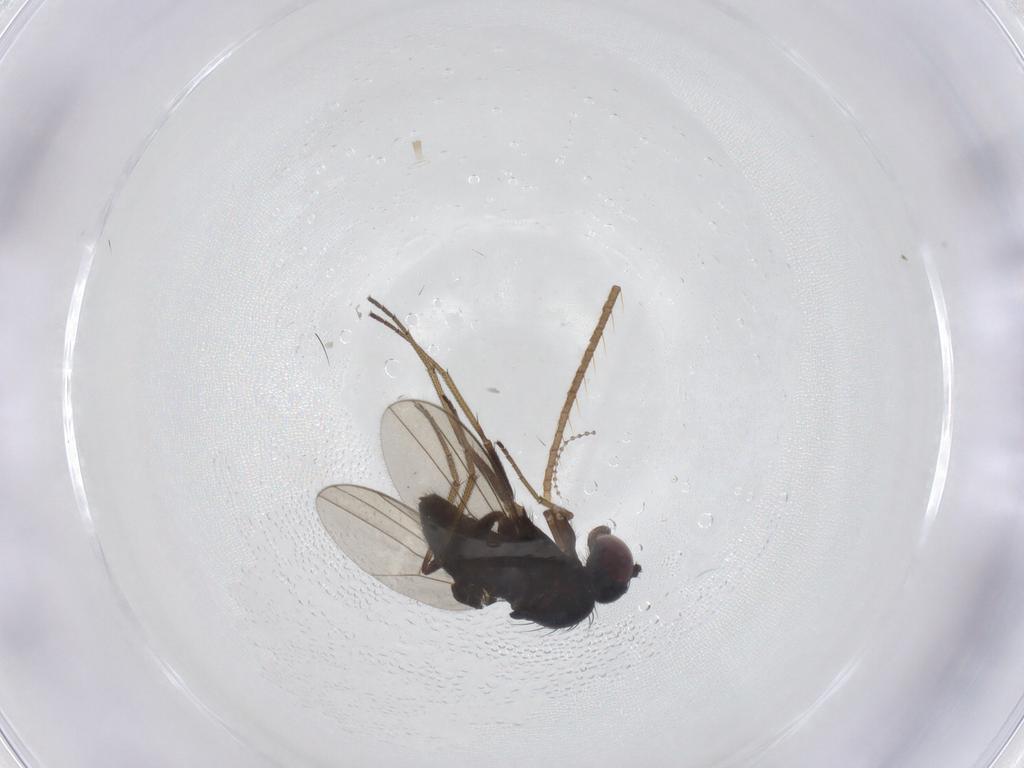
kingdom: Animalia
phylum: Arthropoda
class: Insecta
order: Diptera
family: Dolichopodidae
